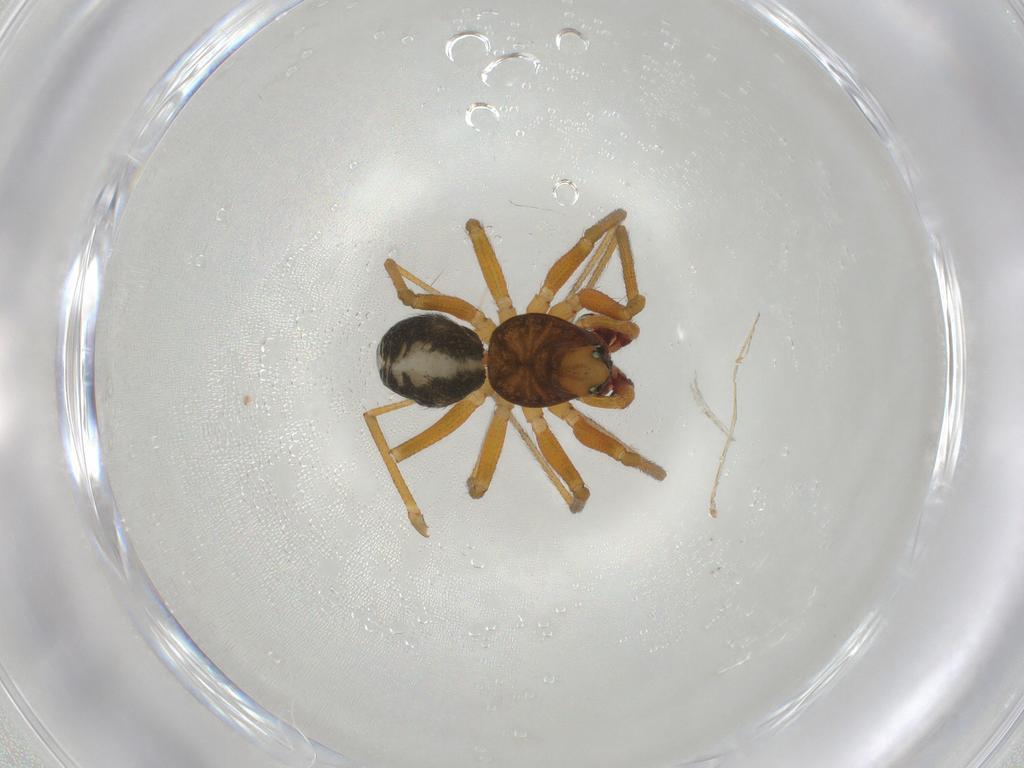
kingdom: Animalia
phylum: Arthropoda
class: Arachnida
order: Araneae
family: Linyphiidae
